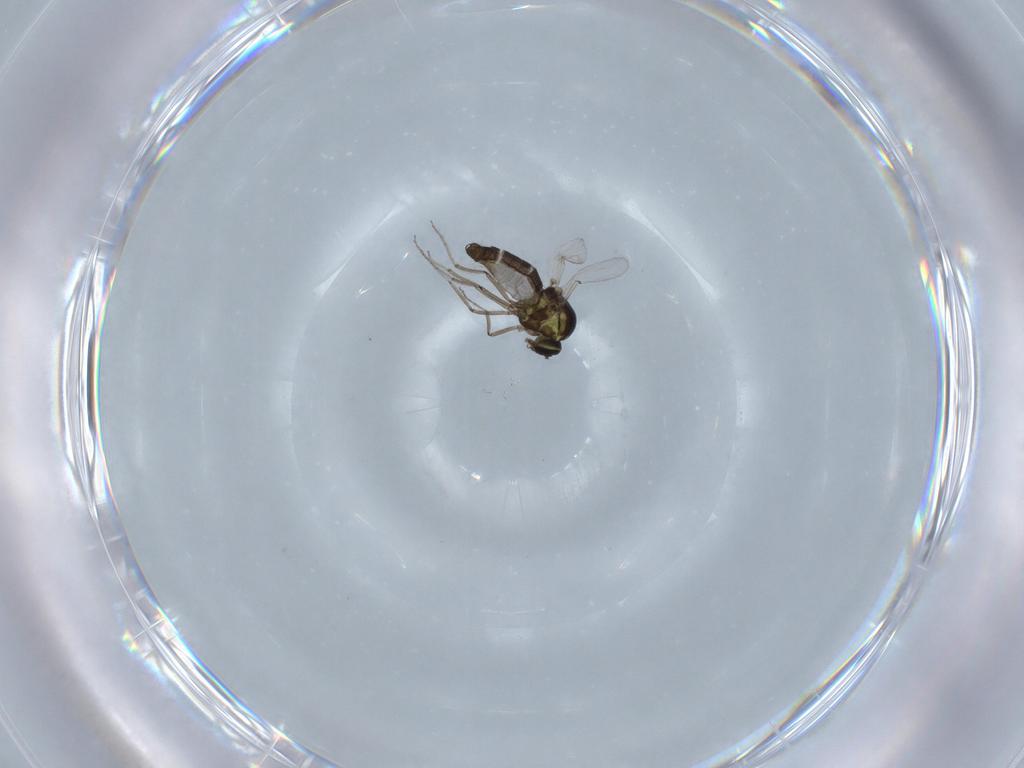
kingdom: Animalia
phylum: Arthropoda
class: Insecta
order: Diptera
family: Ceratopogonidae
